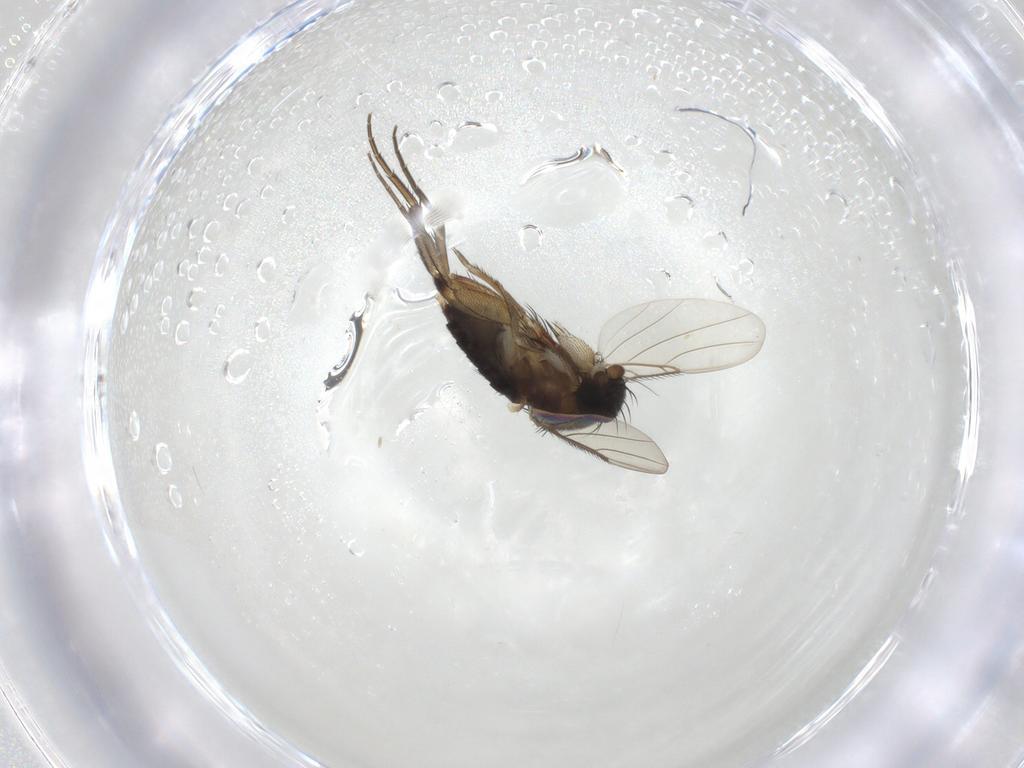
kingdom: Animalia
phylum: Arthropoda
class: Insecta
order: Diptera
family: Phoridae
